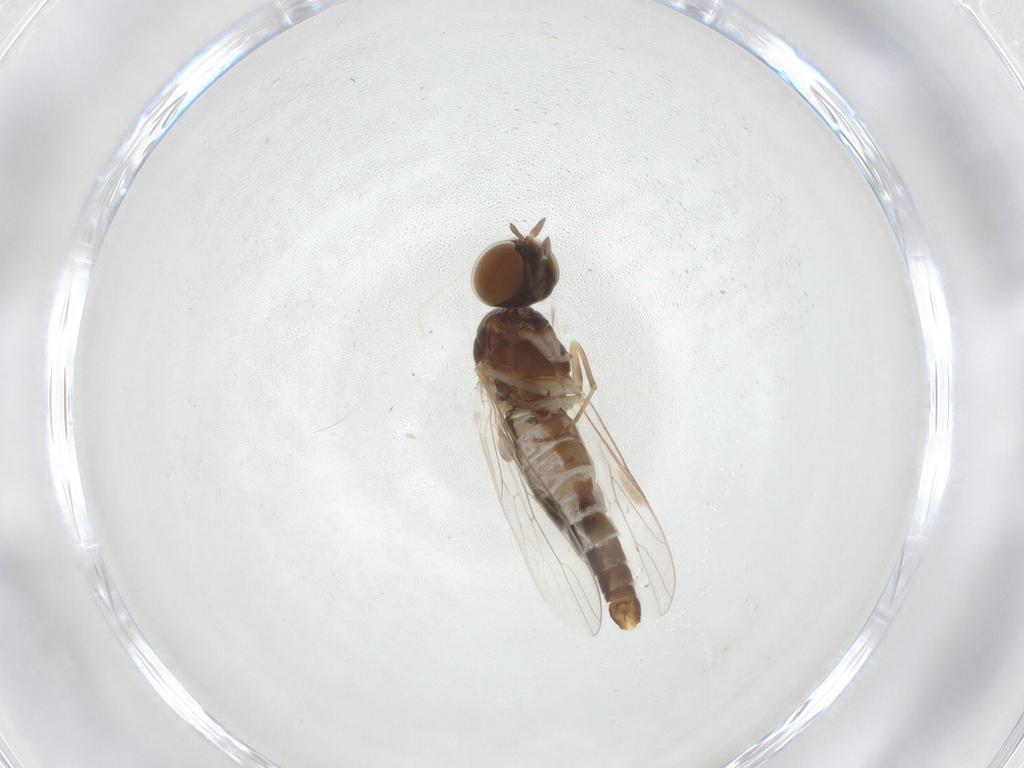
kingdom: Animalia
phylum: Arthropoda
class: Insecta
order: Diptera
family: Scenopinidae
